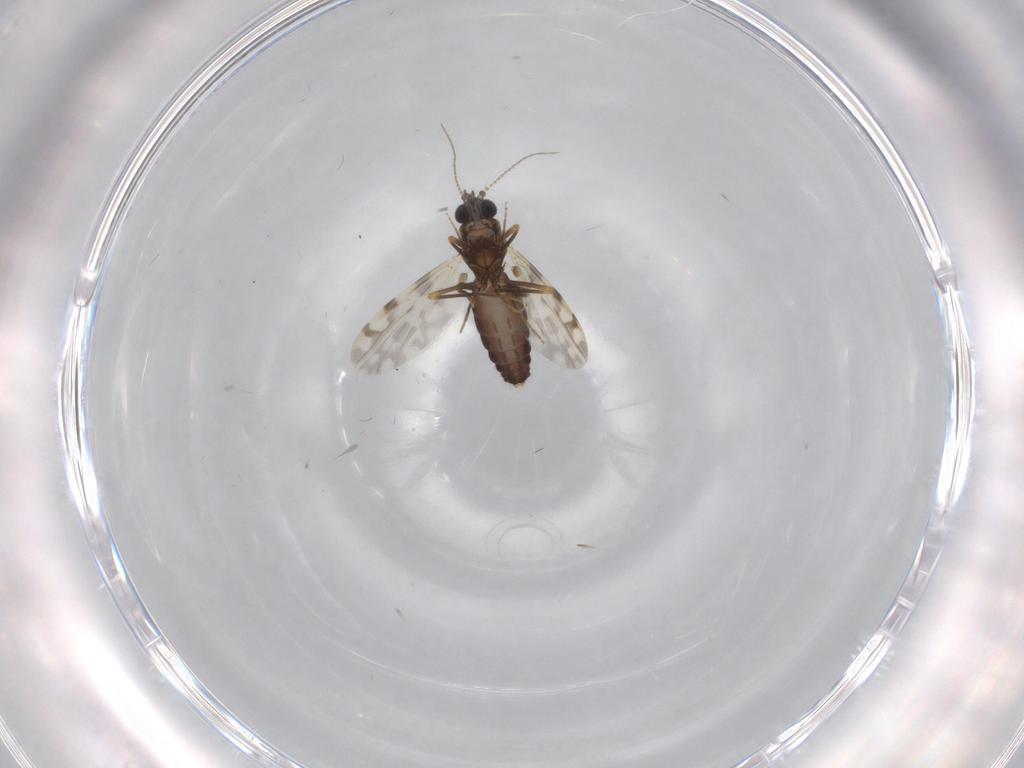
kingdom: Animalia
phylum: Arthropoda
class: Insecta
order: Diptera
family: Ceratopogonidae
